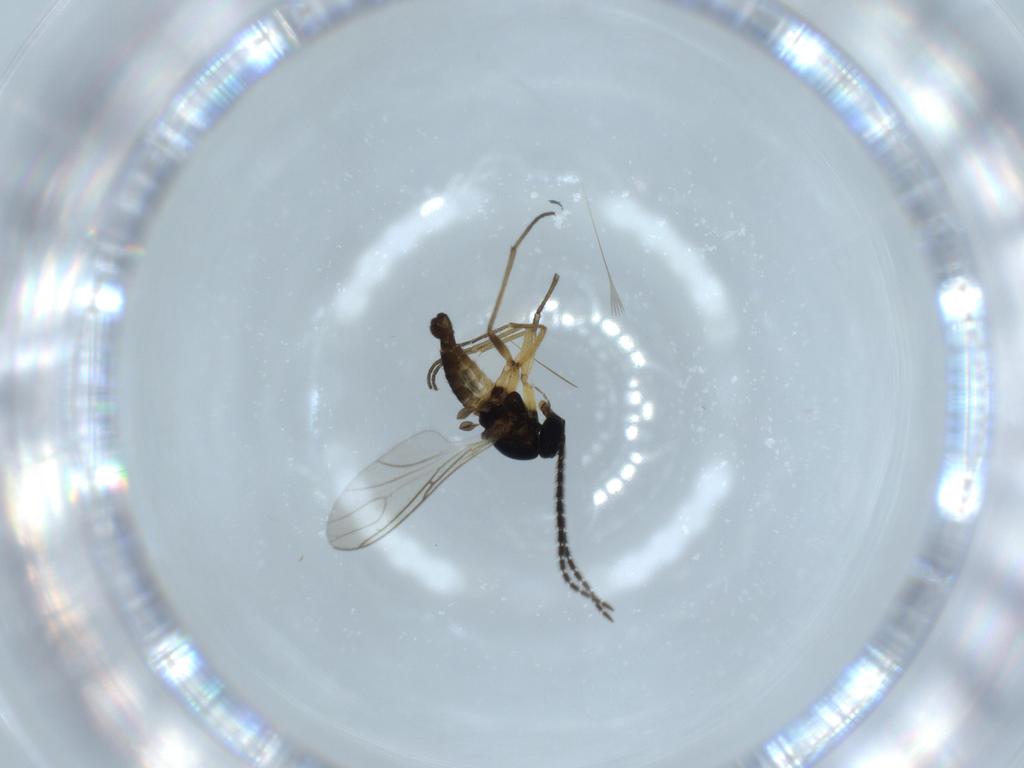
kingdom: Animalia
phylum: Arthropoda
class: Insecta
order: Diptera
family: Sciaridae
